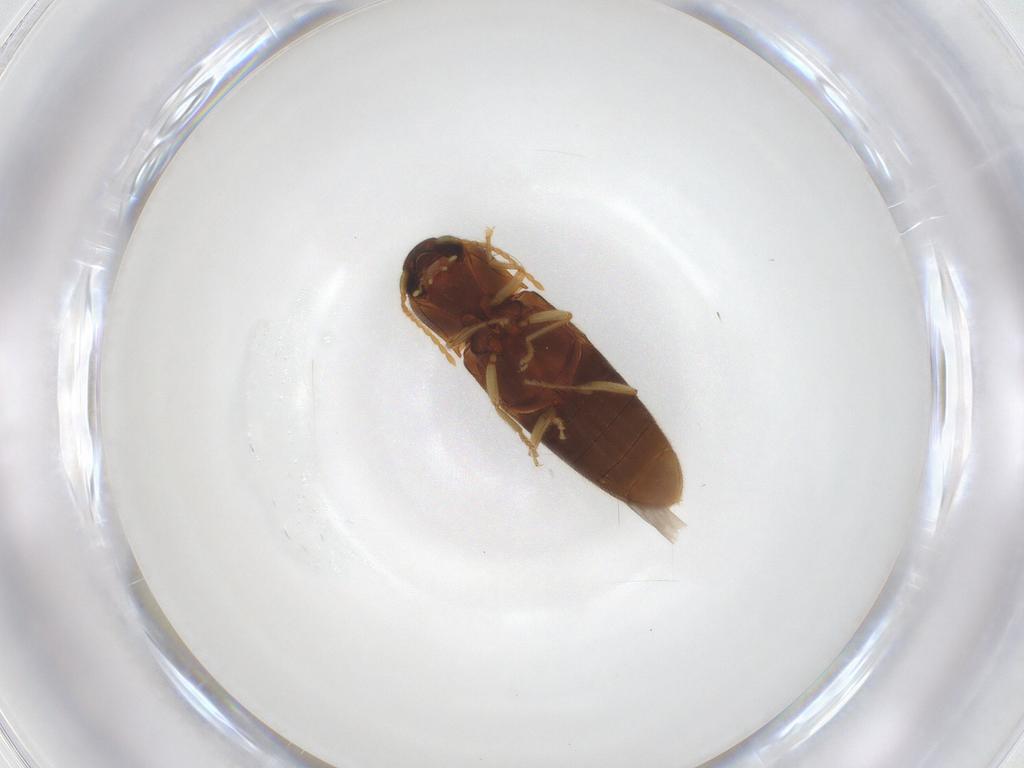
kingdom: Animalia
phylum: Arthropoda
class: Insecta
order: Coleoptera
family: Elateridae
